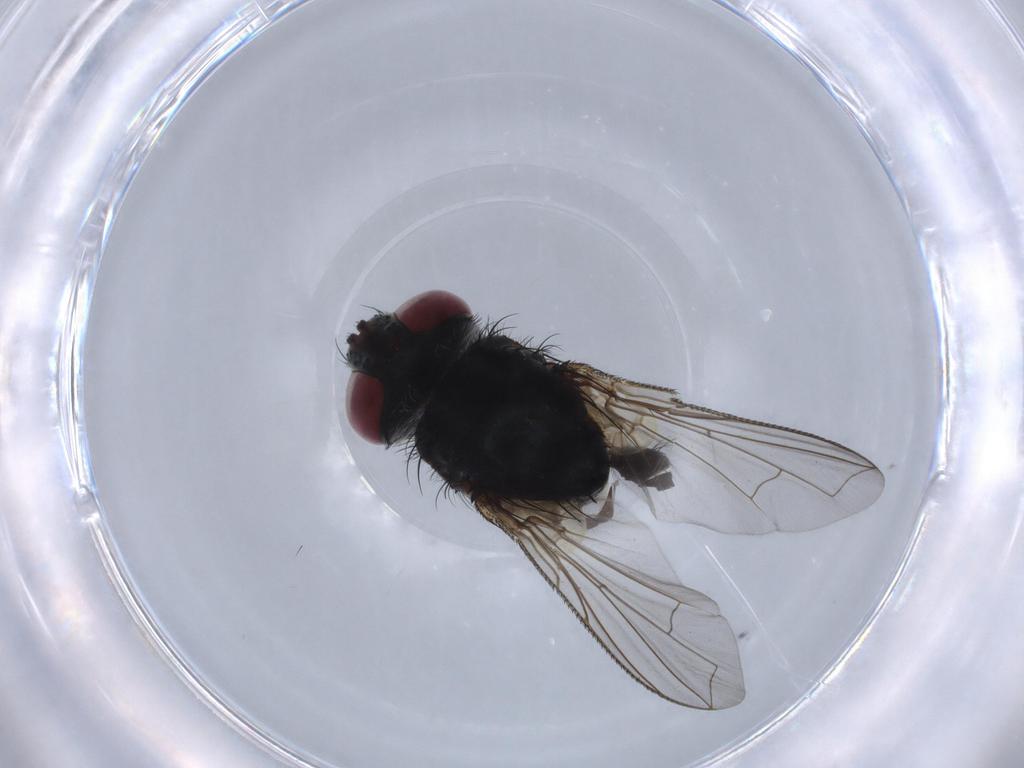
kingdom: Animalia
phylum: Arthropoda
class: Insecta
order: Diptera
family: Tachinidae
